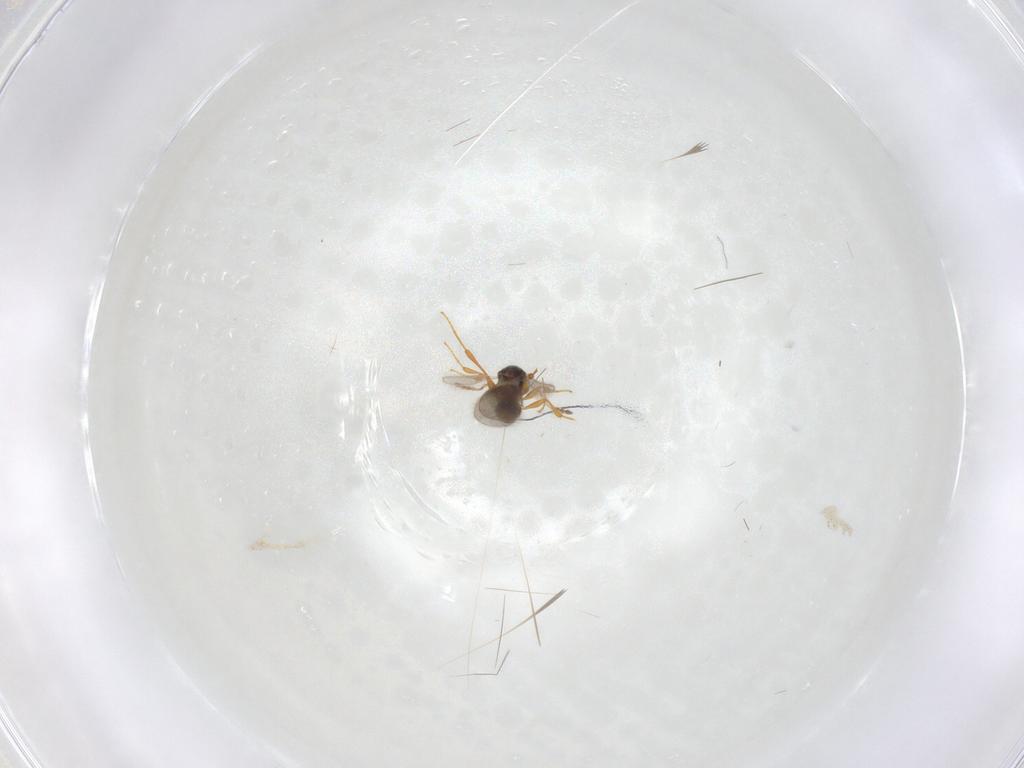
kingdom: Animalia
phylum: Arthropoda
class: Insecta
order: Hymenoptera
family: Platygastridae
